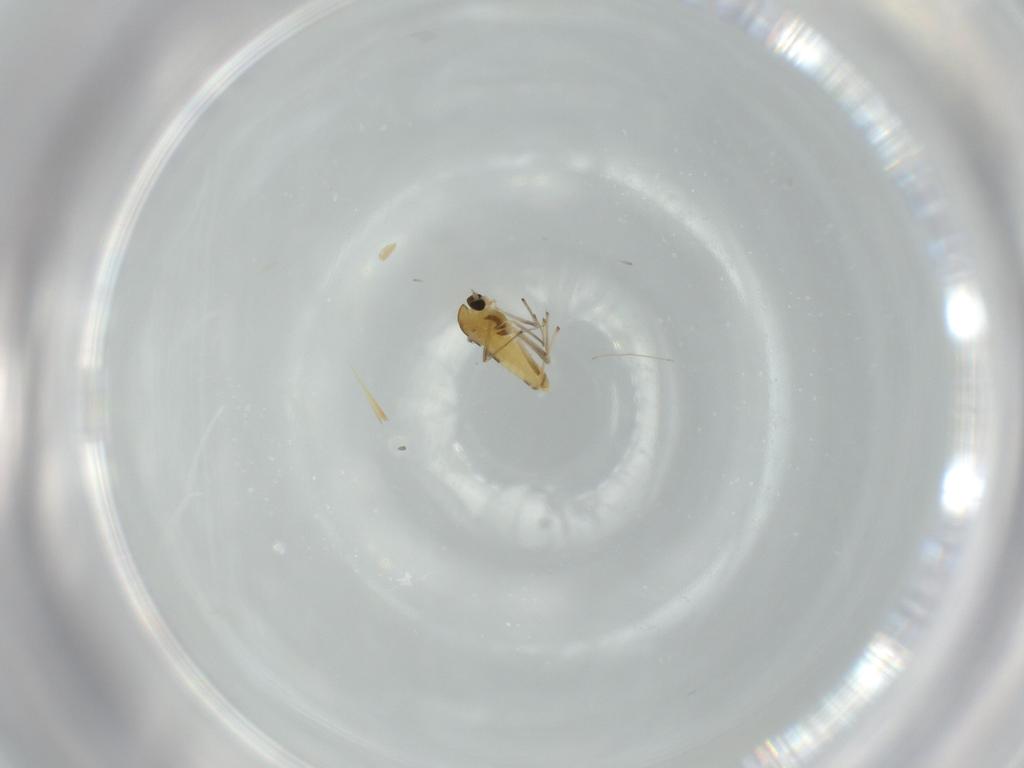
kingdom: Animalia
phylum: Arthropoda
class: Insecta
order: Diptera
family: Chironomidae
